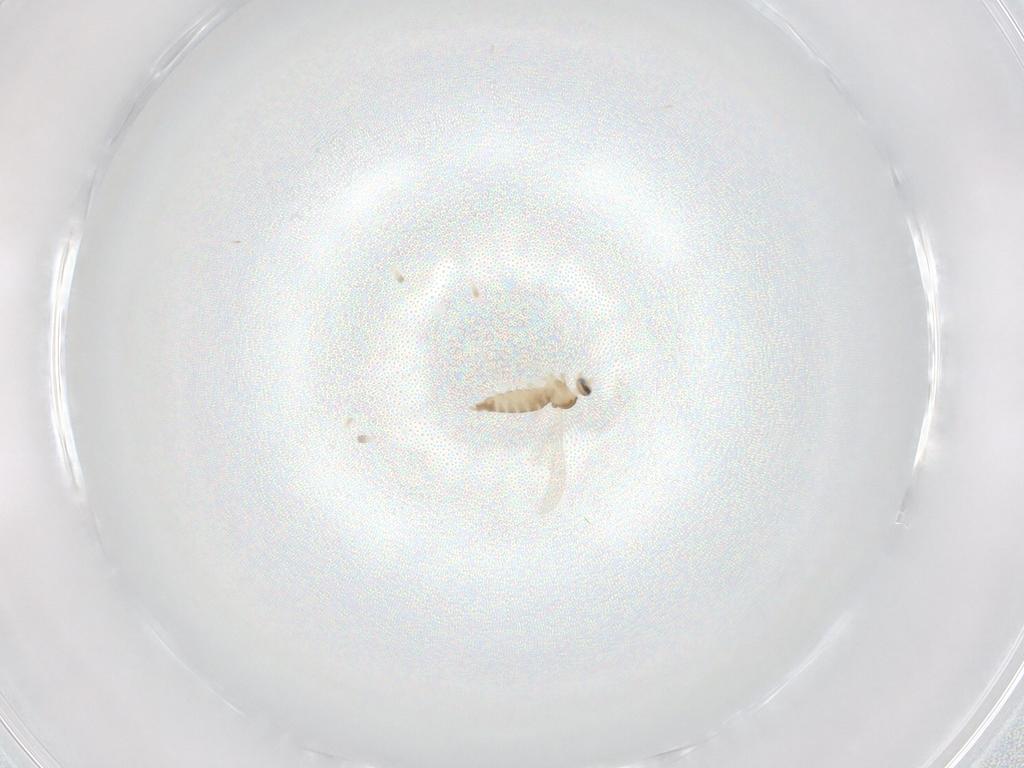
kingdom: Animalia
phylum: Arthropoda
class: Insecta
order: Diptera
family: Cecidomyiidae
